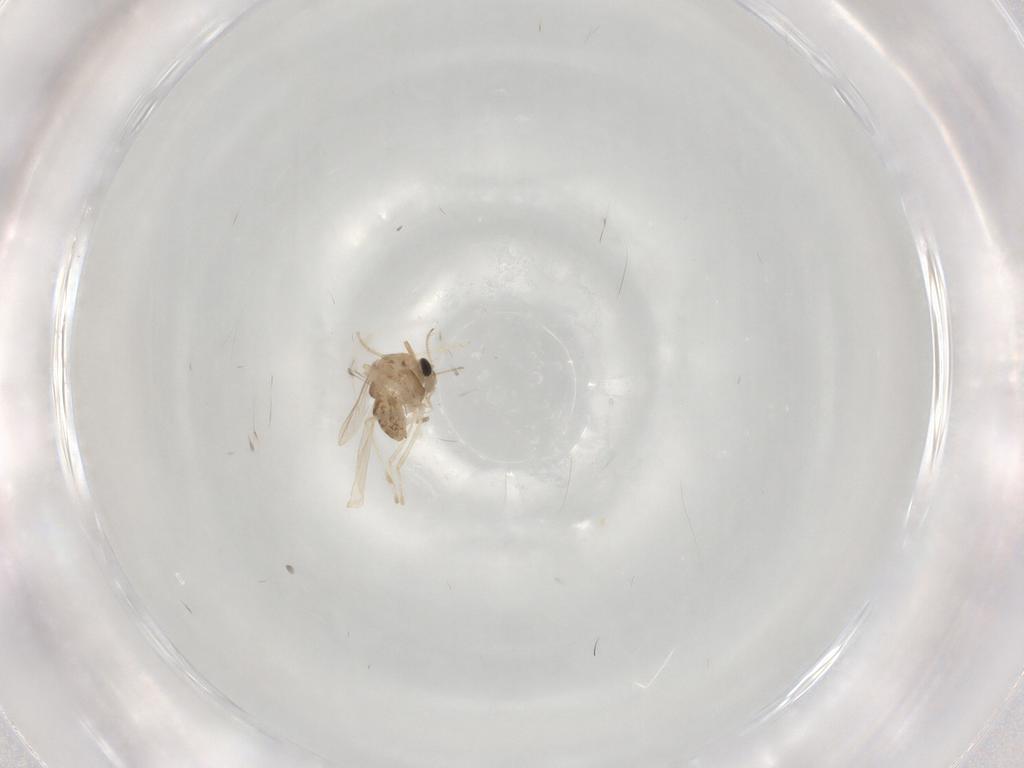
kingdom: Animalia
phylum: Arthropoda
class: Insecta
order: Diptera
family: Chironomidae
